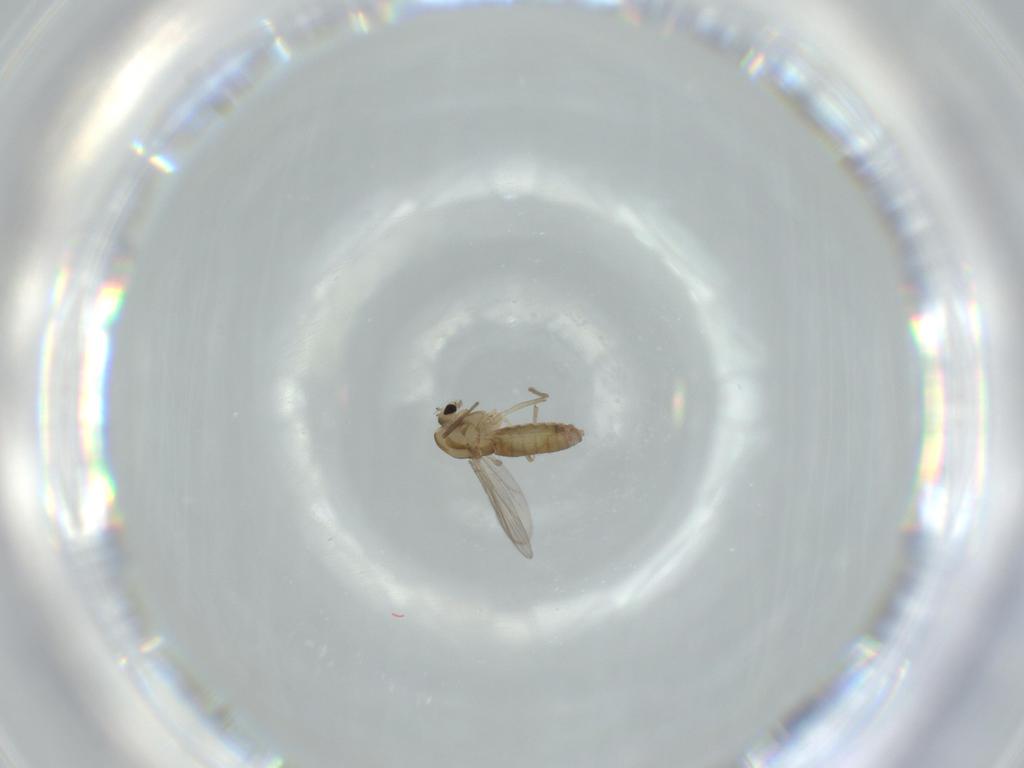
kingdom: Animalia
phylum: Arthropoda
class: Insecta
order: Diptera
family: Chironomidae
